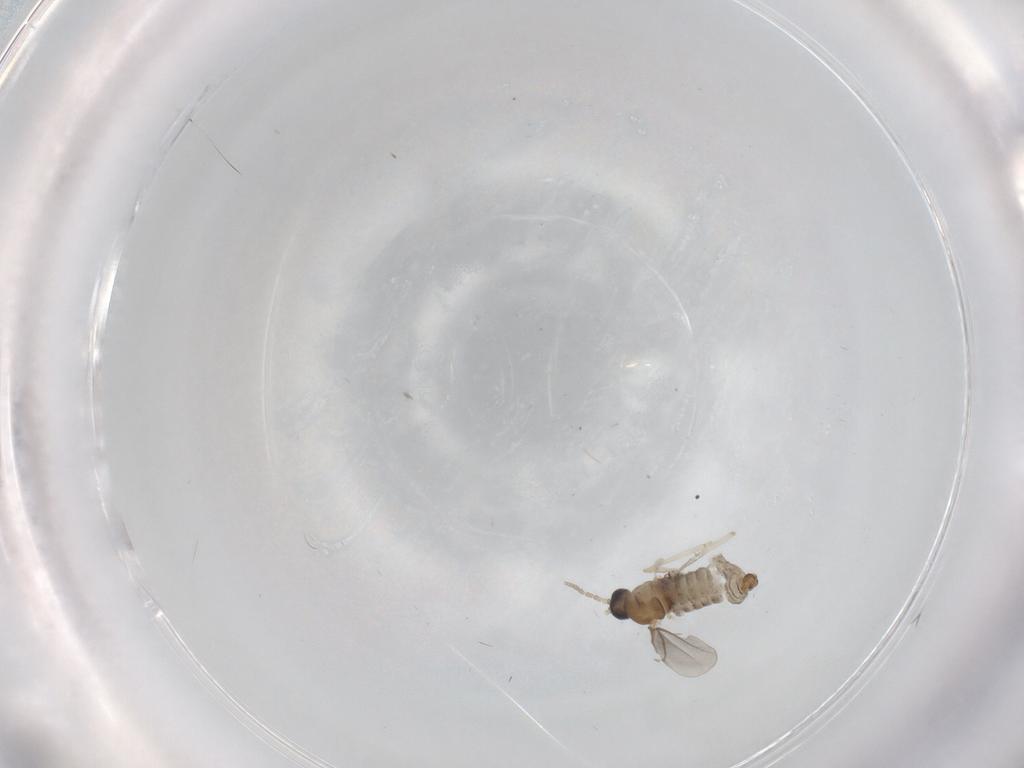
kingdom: Animalia
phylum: Arthropoda
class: Insecta
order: Diptera
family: Cecidomyiidae
